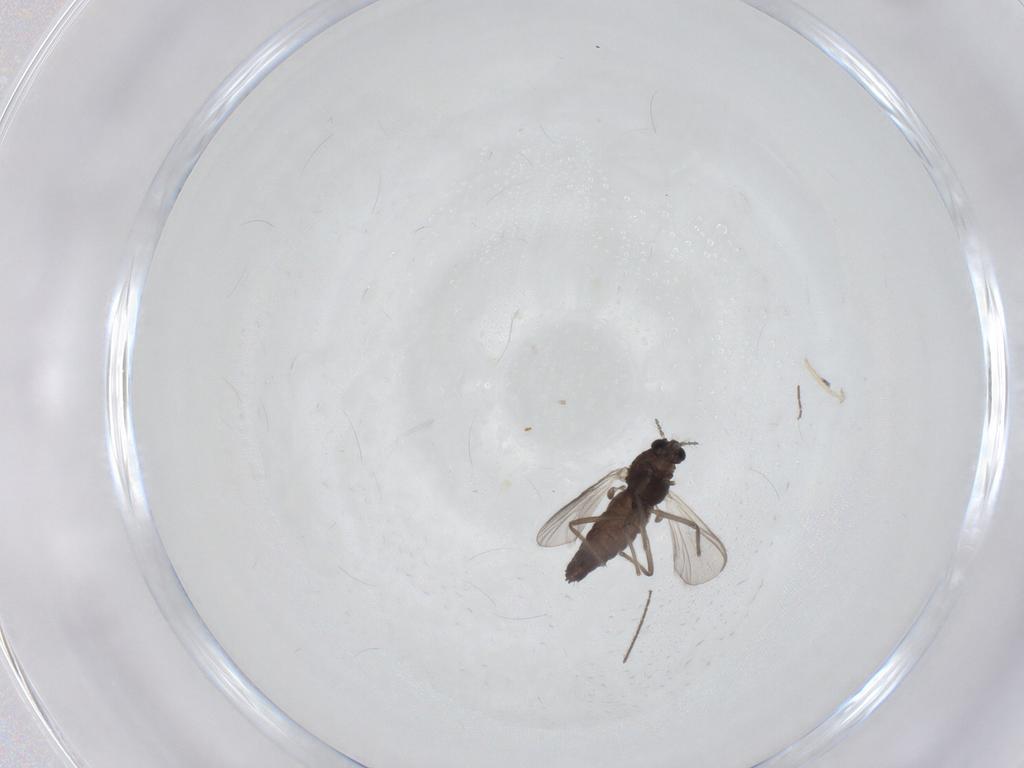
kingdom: Animalia
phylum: Arthropoda
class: Insecta
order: Diptera
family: Chironomidae
